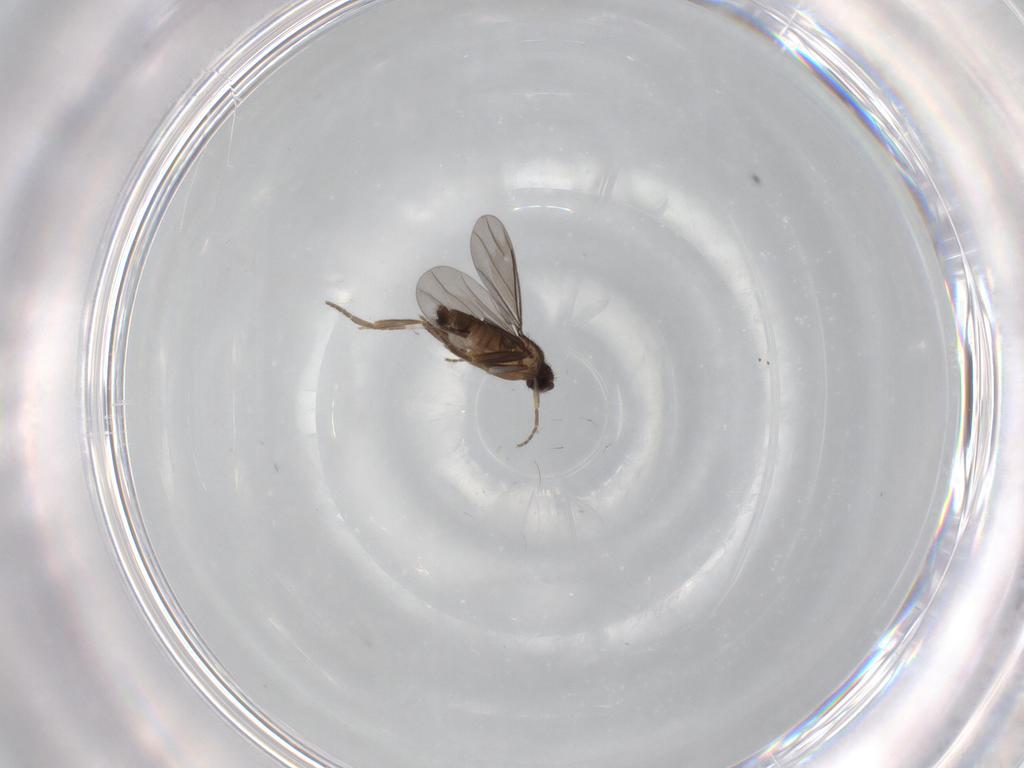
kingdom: Animalia
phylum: Arthropoda
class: Insecta
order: Diptera
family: Phoridae
